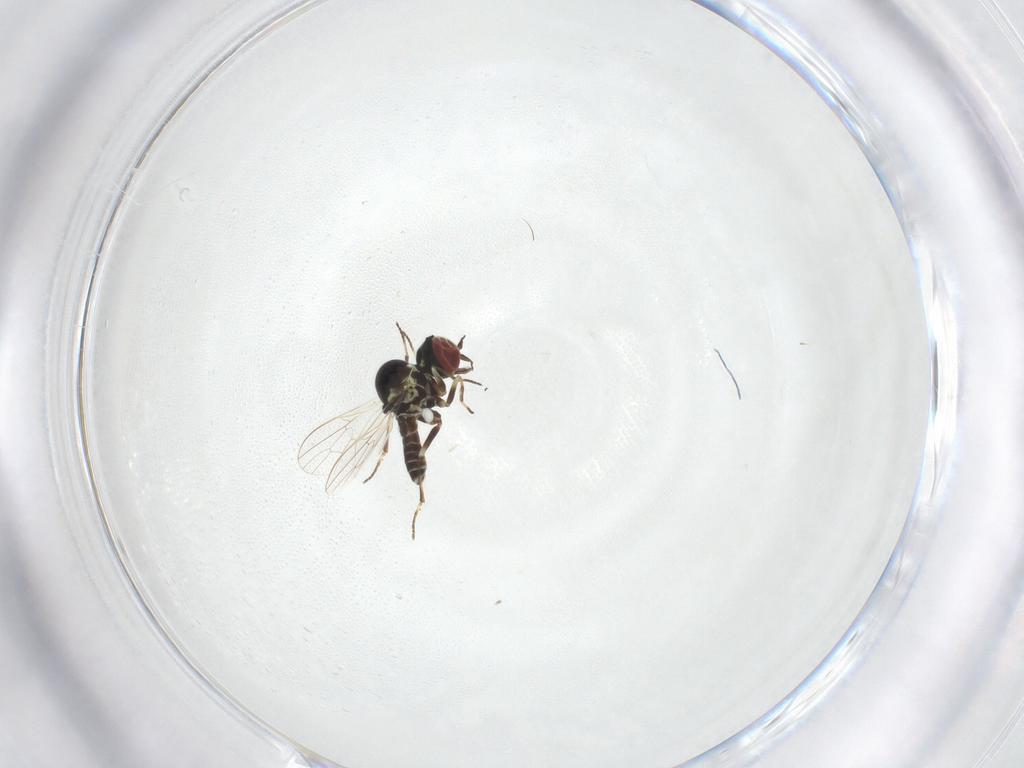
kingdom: Animalia
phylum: Arthropoda
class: Insecta
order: Diptera
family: Bombyliidae
